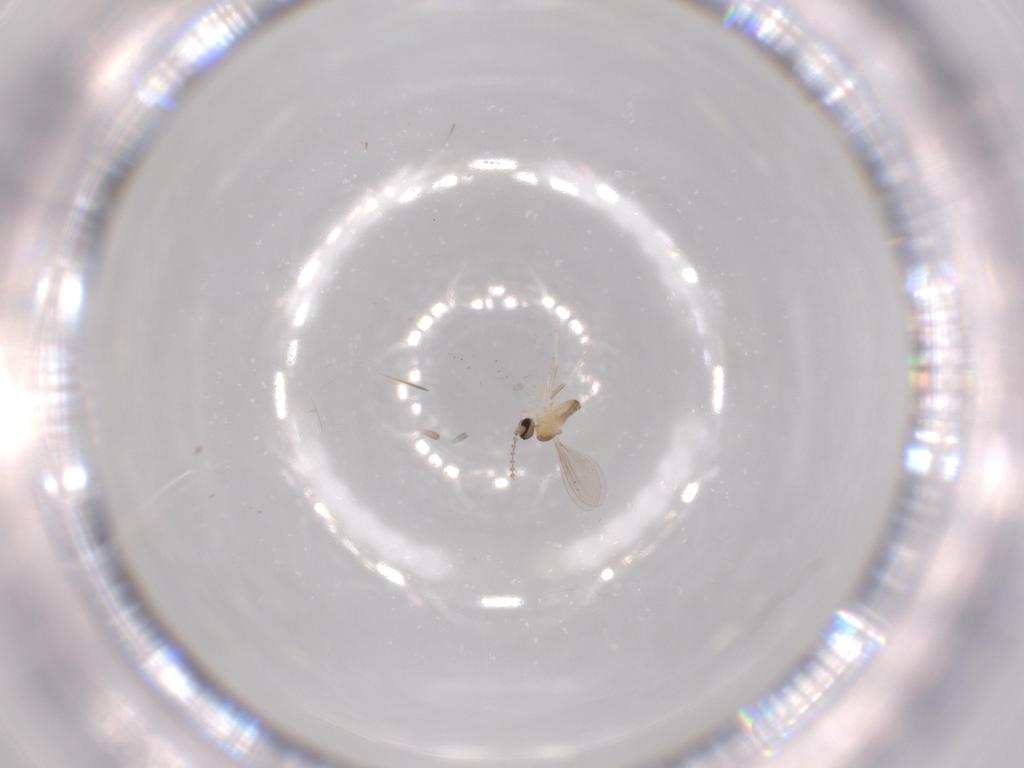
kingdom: Animalia
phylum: Arthropoda
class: Insecta
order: Diptera
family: Cecidomyiidae
